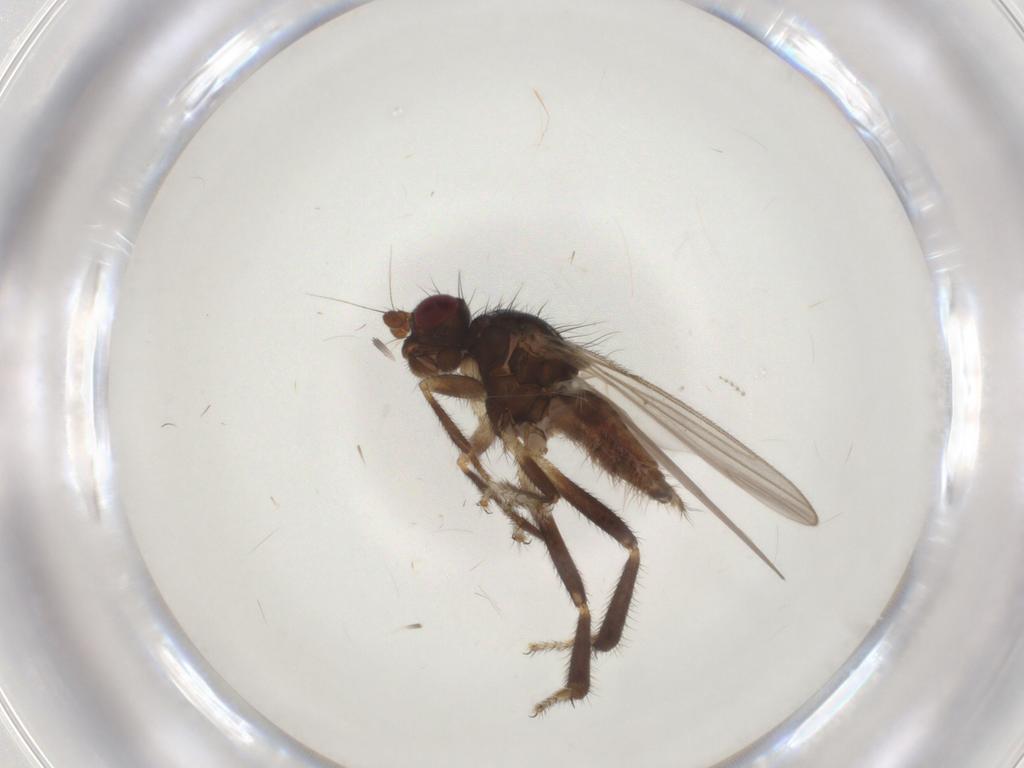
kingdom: Animalia
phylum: Arthropoda
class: Insecta
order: Diptera
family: Sphaeroceridae
